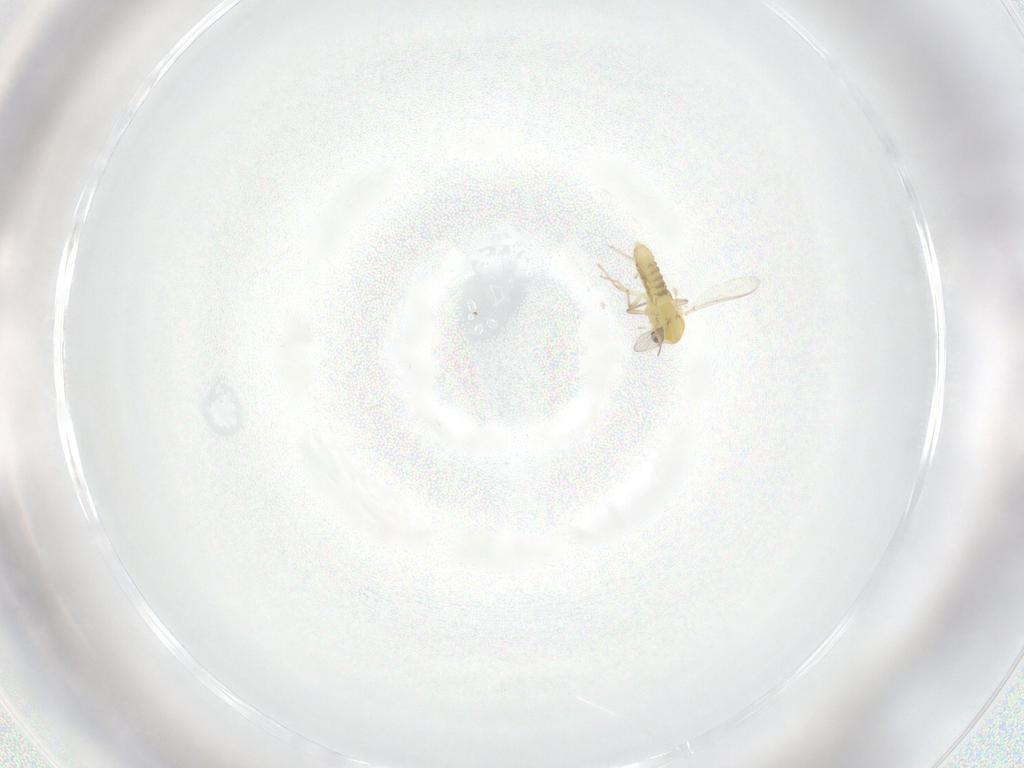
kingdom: Animalia
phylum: Arthropoda
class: Insecta
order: Diptera
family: Chironomidae
